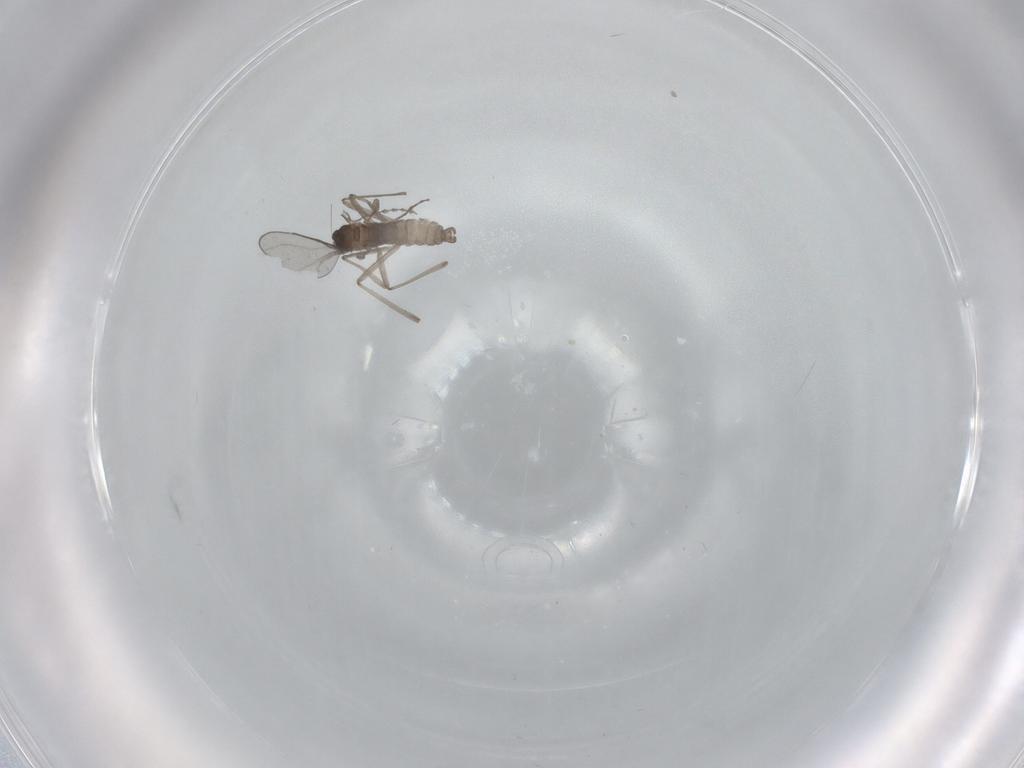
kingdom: Animalia
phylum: Arthropoda
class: Insecta
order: Diptera
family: Cecidomyiidae
